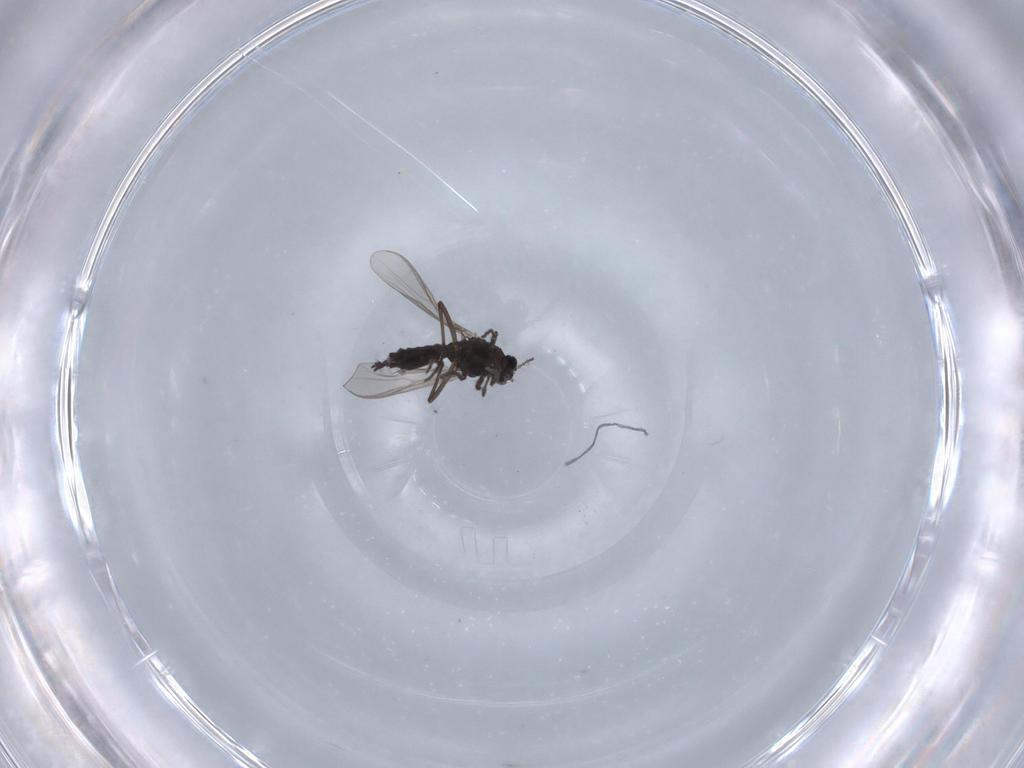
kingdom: Animalia
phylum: Arthropoda
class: Insecta
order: Diptera
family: Chironomidae
